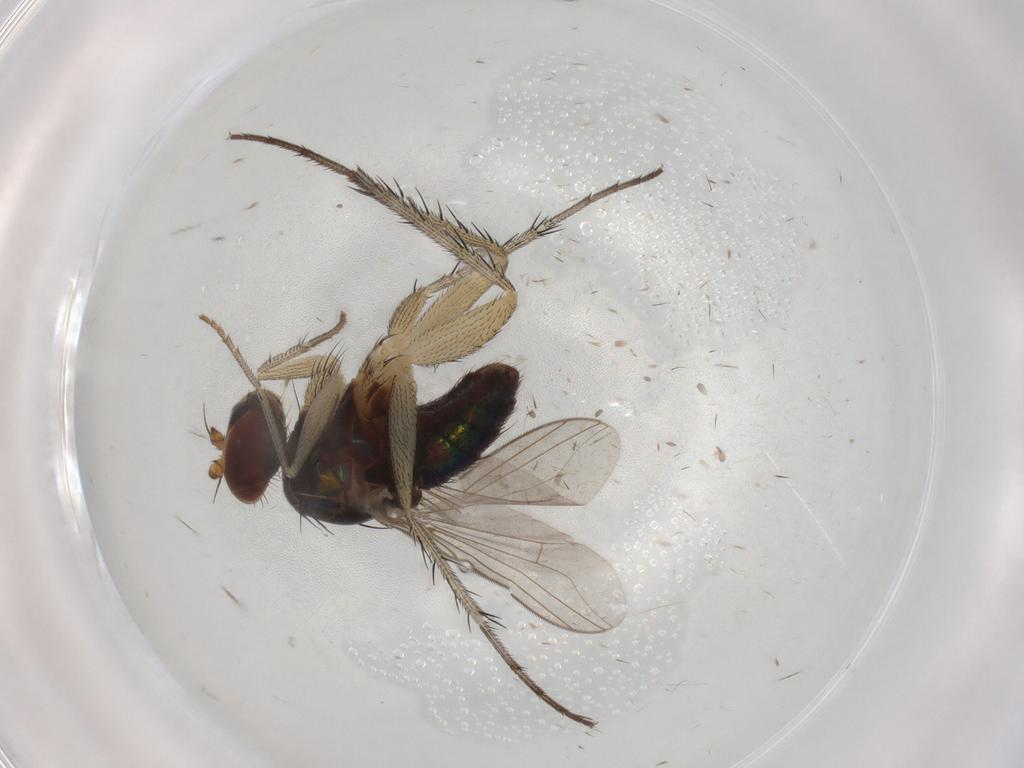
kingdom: Animalia
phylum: Arthropoda
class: Insecta
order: Diptera
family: Dolichopodidae
